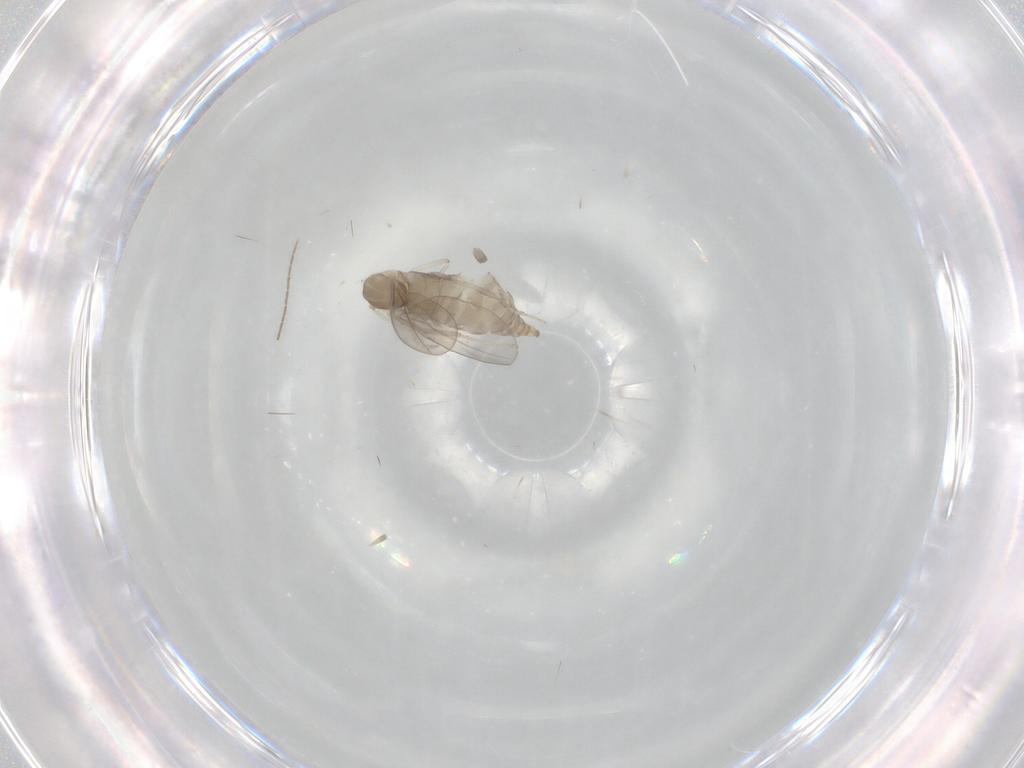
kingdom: Animalia
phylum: Arthropoda
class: Insecta
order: Diptera
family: Cecidomyiidae
